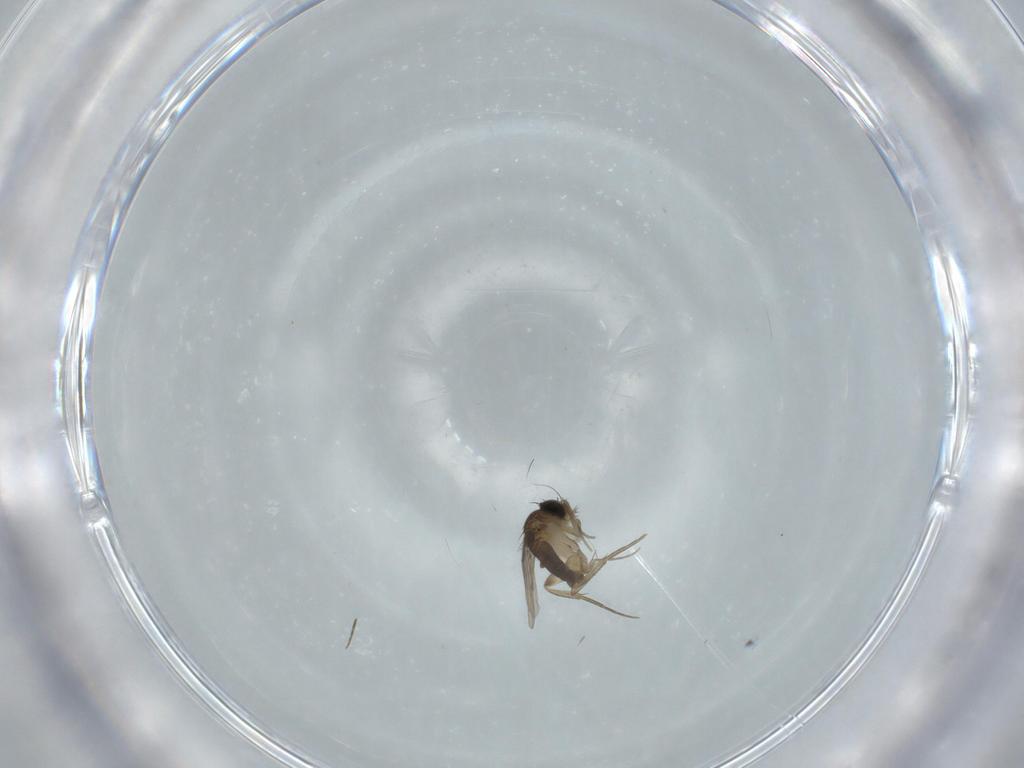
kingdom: Animalia
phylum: Arthropoda
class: Insecta
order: Diptera
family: Phoridae
